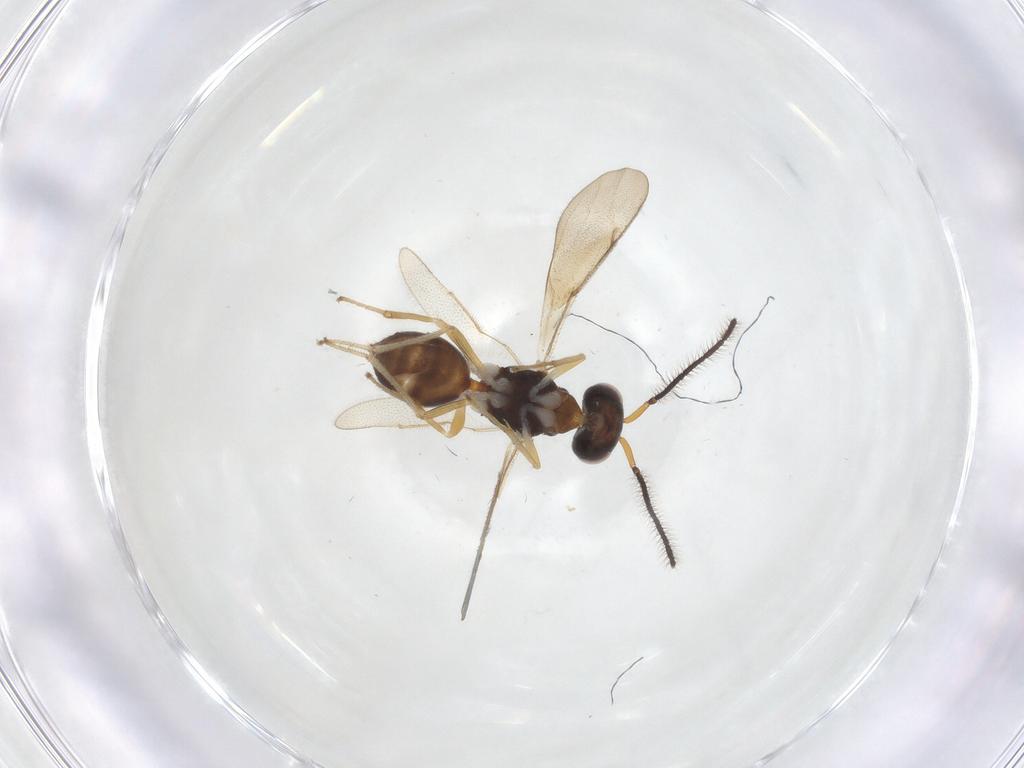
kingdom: Animalia
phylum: Arthropoda
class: Insecta
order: Hymenoptera
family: Diparidae
